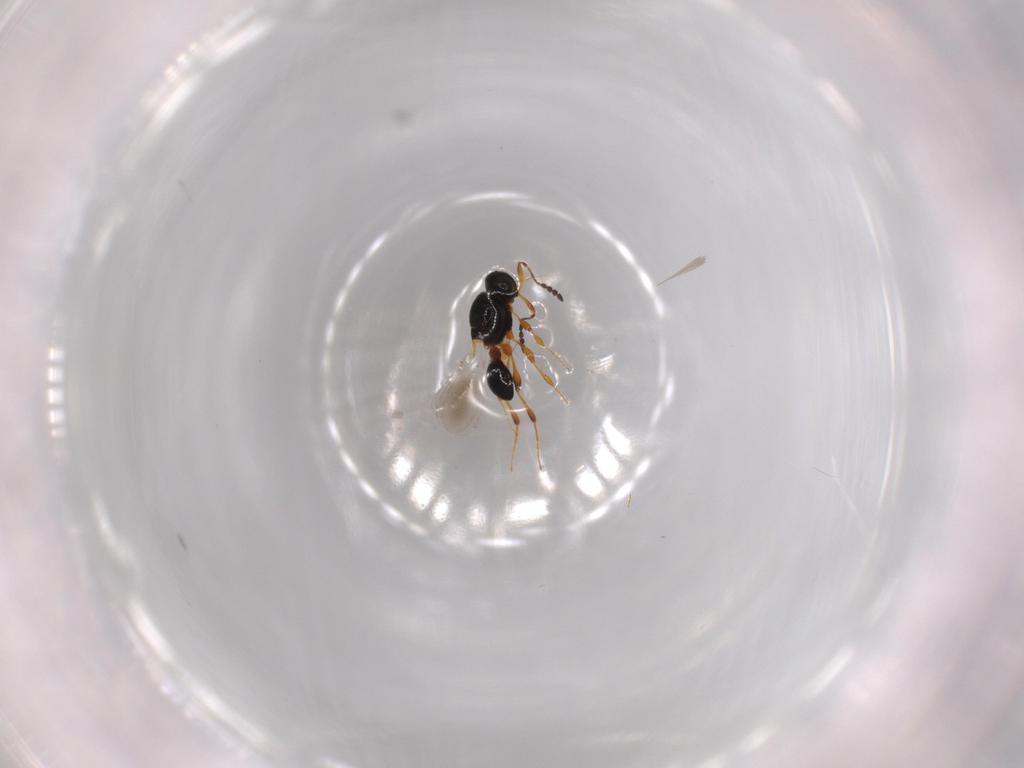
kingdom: Animalia
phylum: Arthropoda
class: Insecta
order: Hymenoptera
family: Platygastridae
